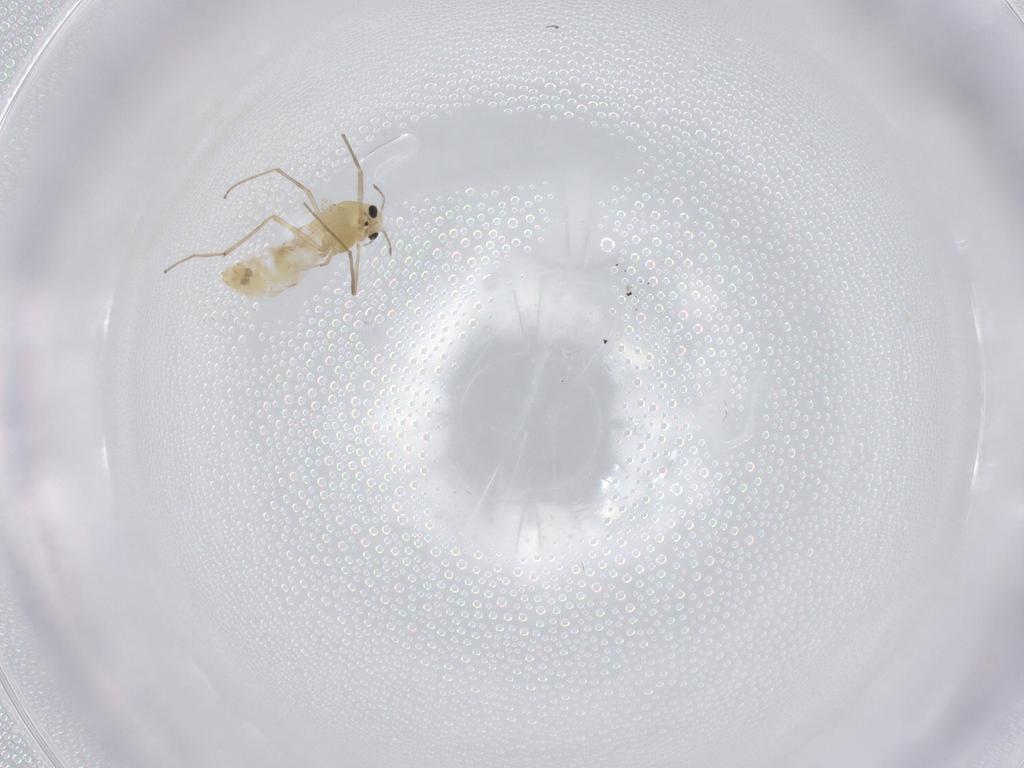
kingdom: Animalia
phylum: Arthropoda
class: Insecta
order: Diptera
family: Chironomidae
